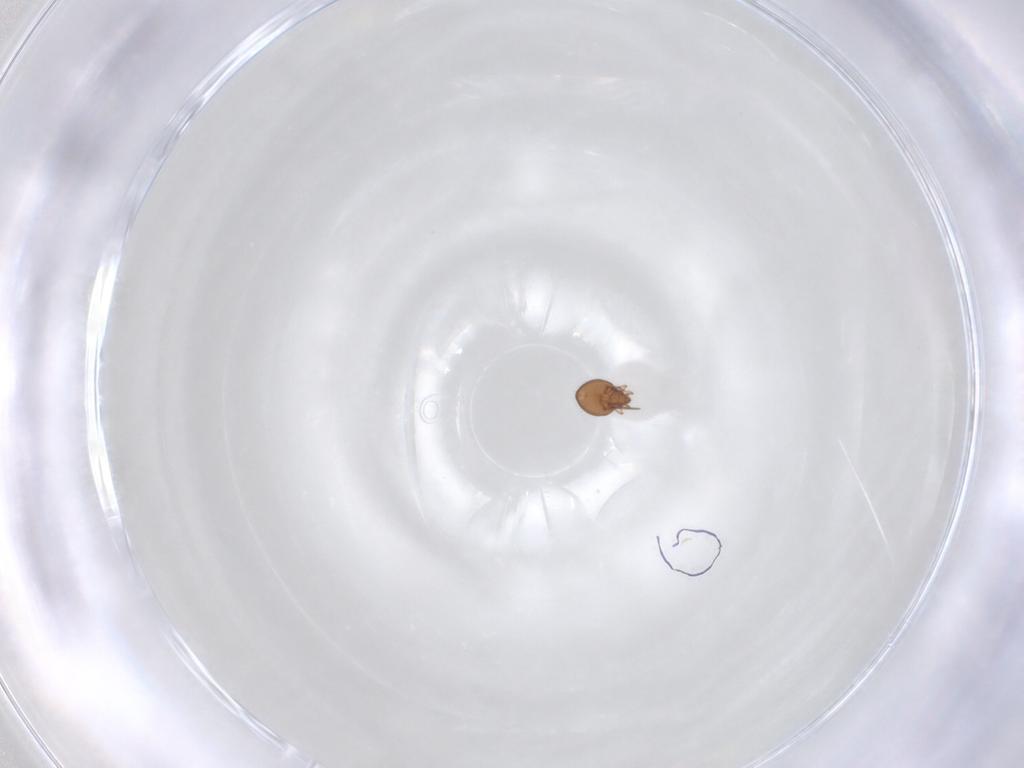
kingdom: Animalia
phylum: Arthropoda
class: Arachnida
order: Sarcoptiformes
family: Oribatulidae
